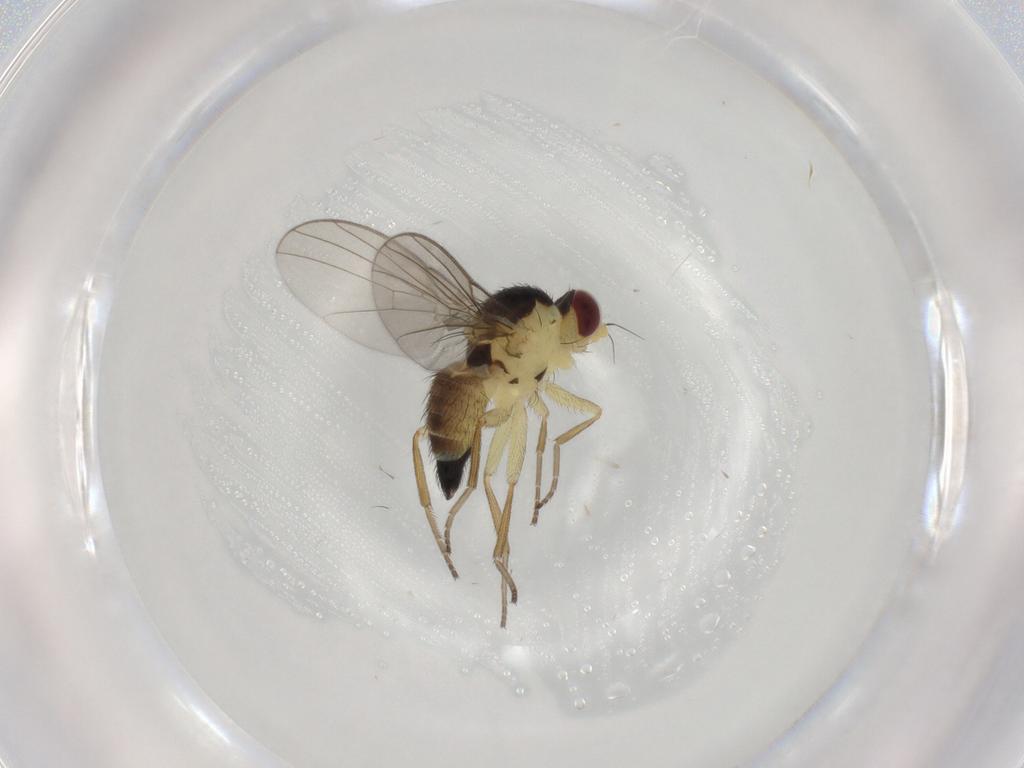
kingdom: Animalia
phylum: Arthropoda
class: Insecta
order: Diptera
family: Agromyzidae
